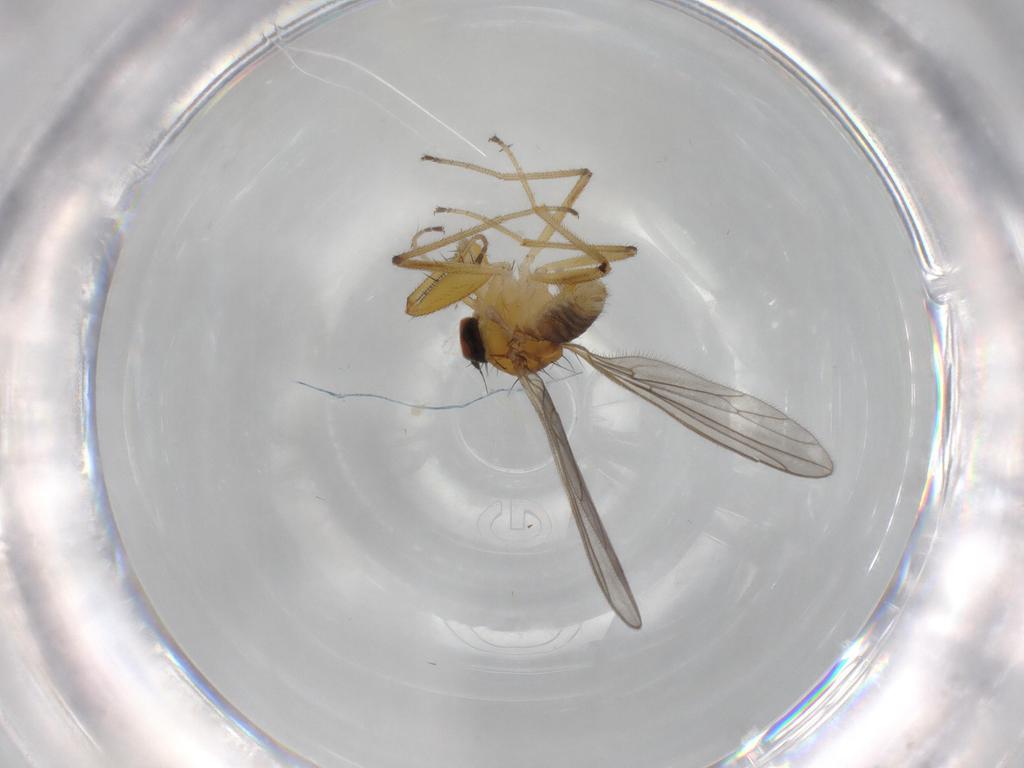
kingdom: Animalia
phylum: Arthropoda
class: Insecta
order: Diptera
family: Empididae
